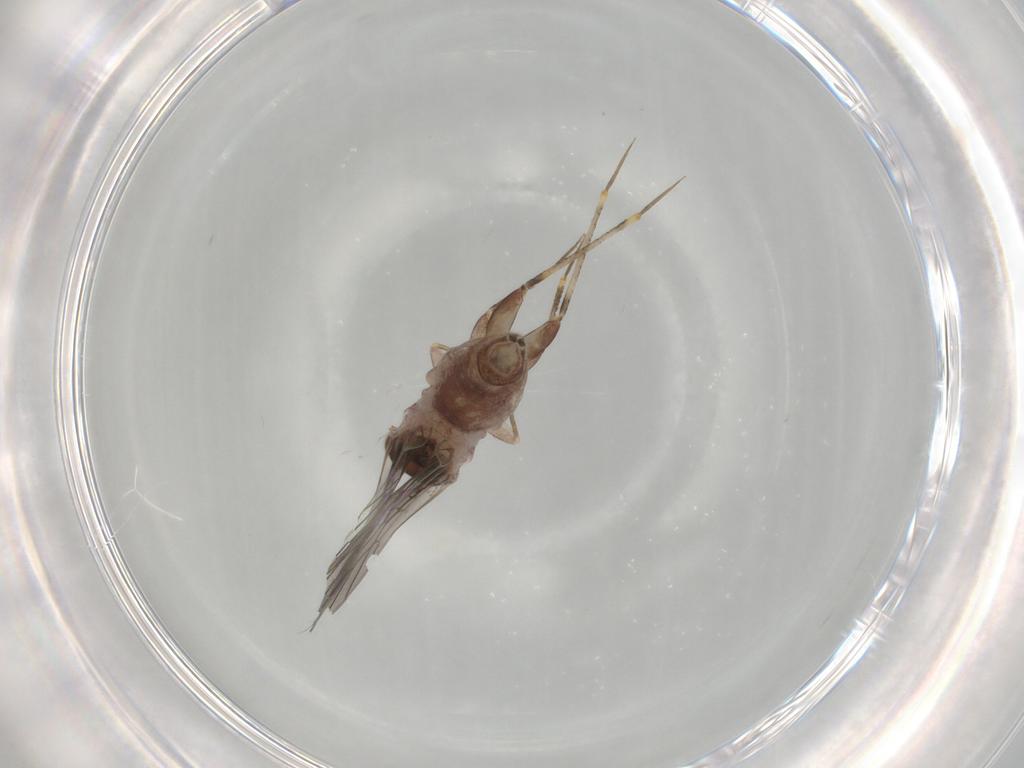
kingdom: Animalia
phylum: Arthropoda
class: Insecta
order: Psocodea
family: Lepidopsocidae
